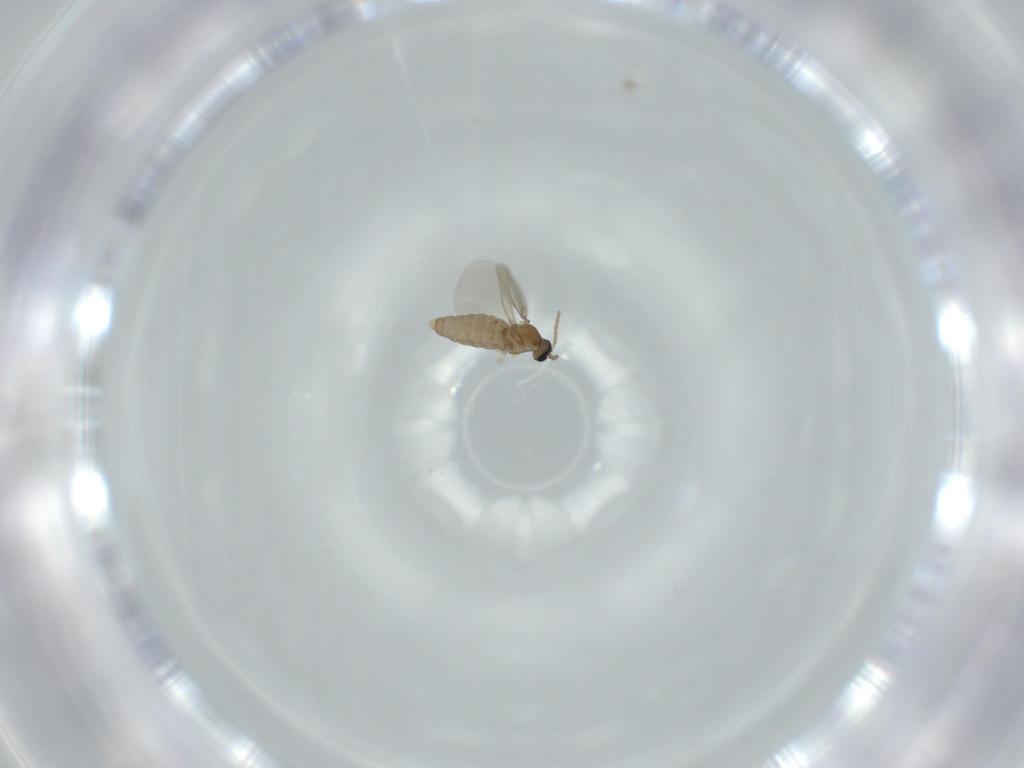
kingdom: Animalia
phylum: Arthropoda
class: Insecta
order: Diptera
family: Cecidomyiidae
